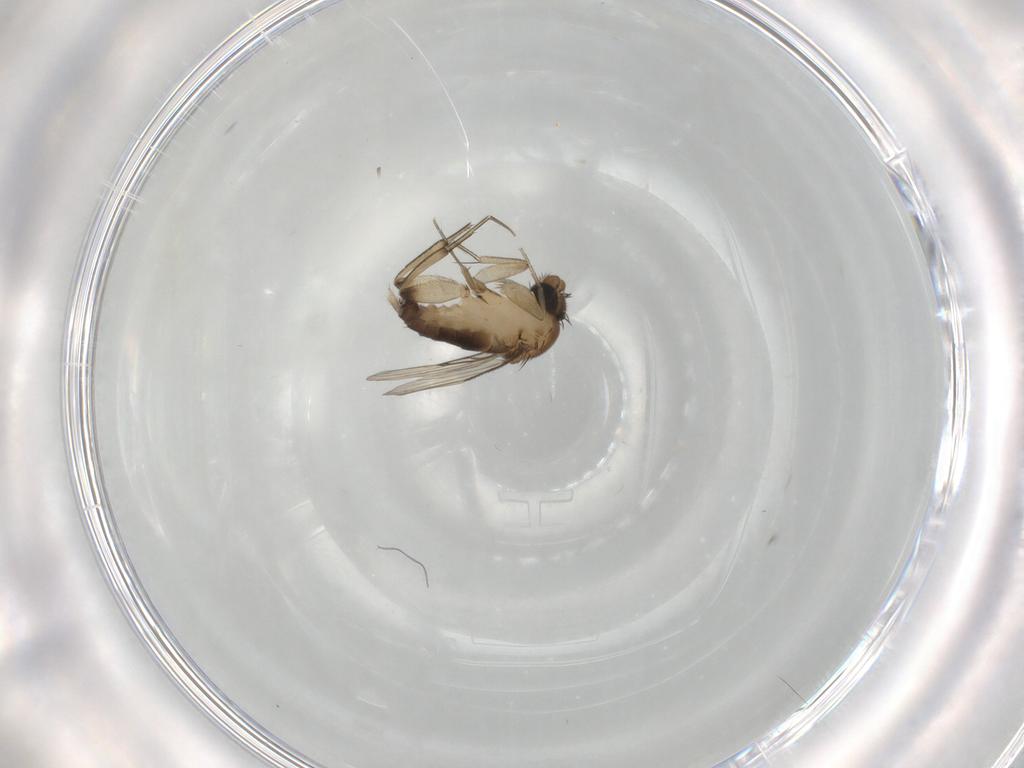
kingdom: Animalia
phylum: Arthropoda
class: Insecta
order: Diptera
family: Phoridae
